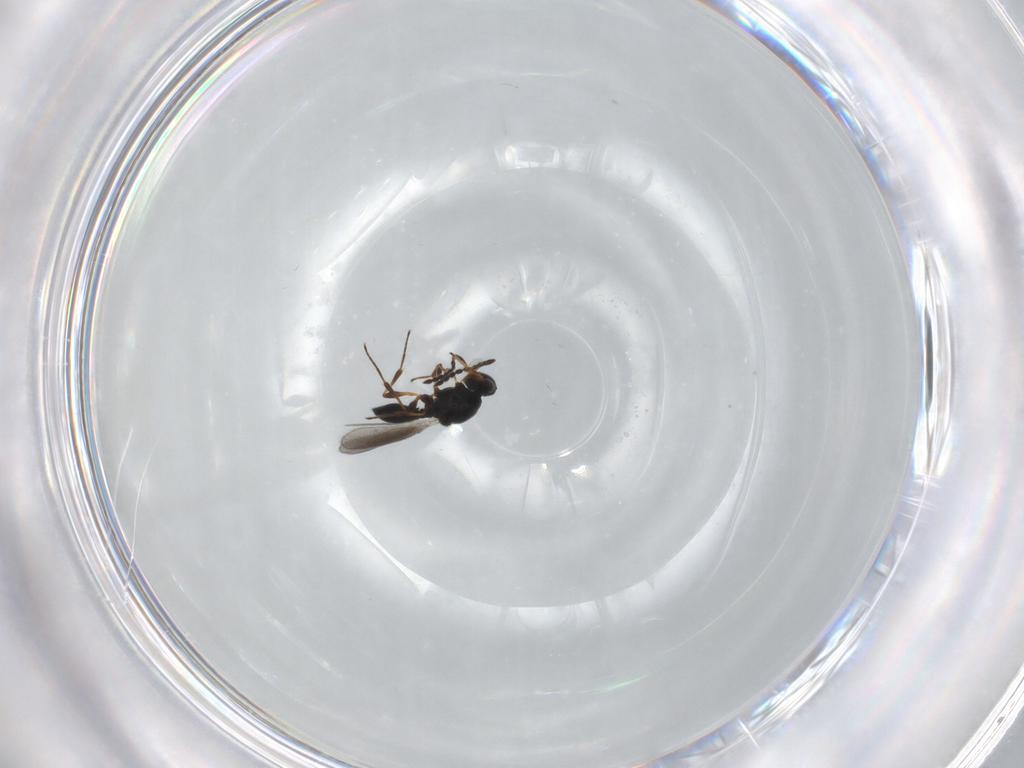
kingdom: Animalia
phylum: Arthropoda
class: Insecta
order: Hymenoptera
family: Platygastridae
